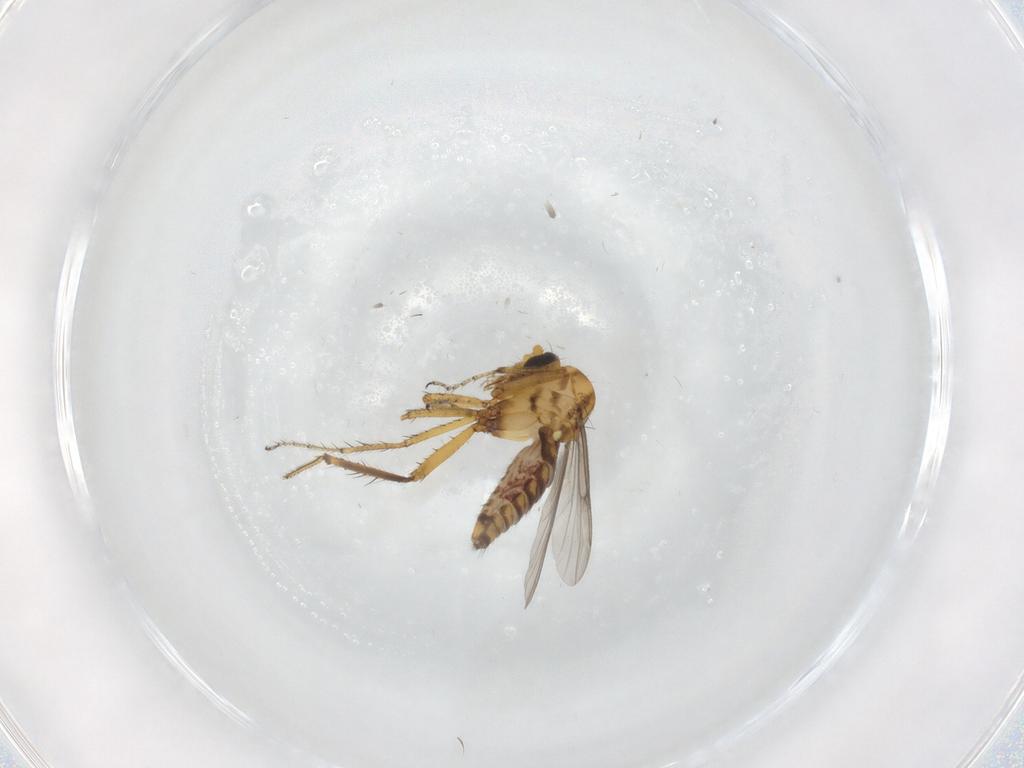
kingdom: Animalia
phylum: Arthropoda
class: Insecta
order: Diptera
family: Ceratopogonidae
